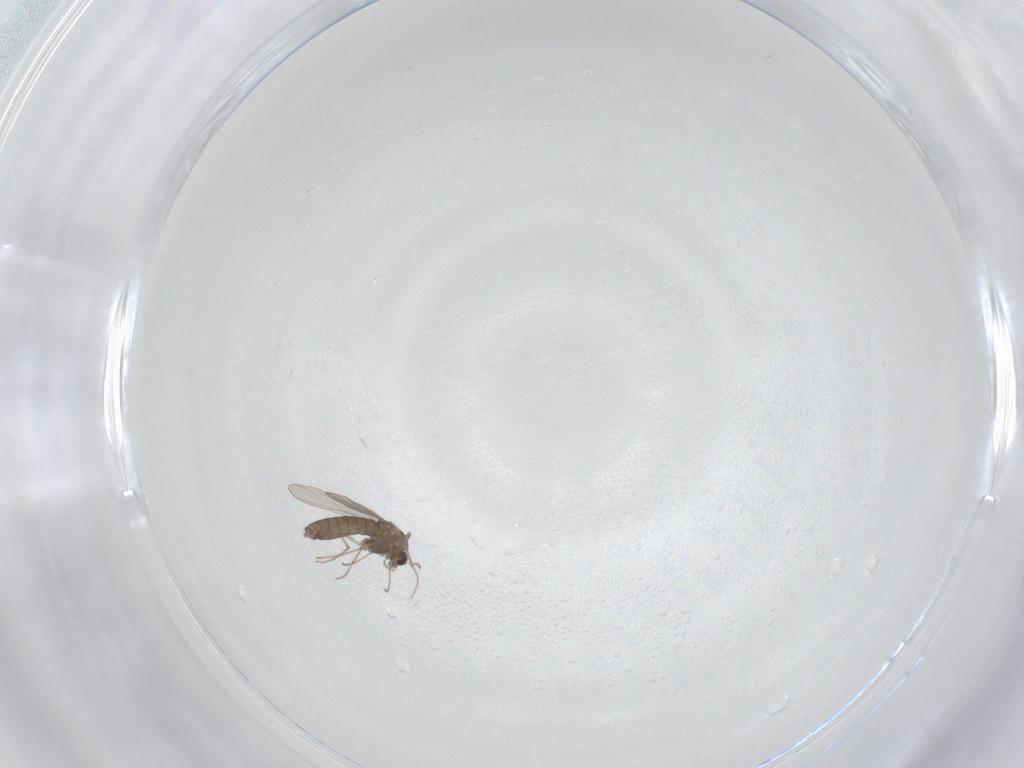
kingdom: Animalia
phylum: Arthropoda
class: Insecta
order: Diptera
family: Chironomidae
